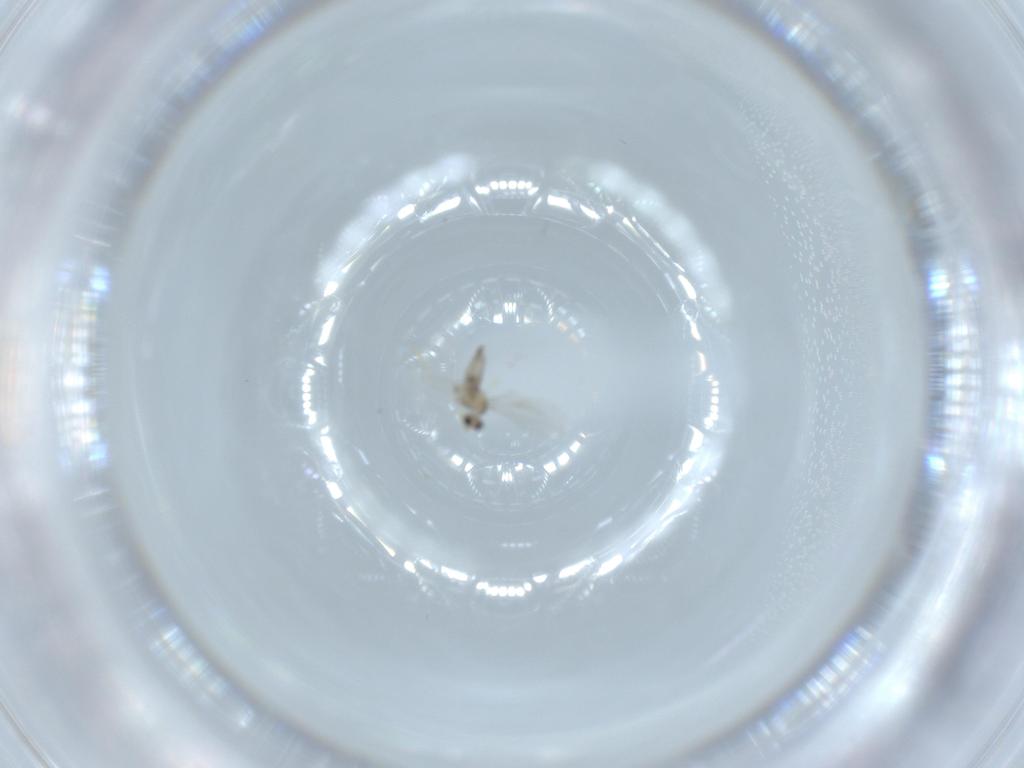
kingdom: Animalia
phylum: Arthropoda
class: Insecta
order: Diptera
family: Cecidomyiidae
